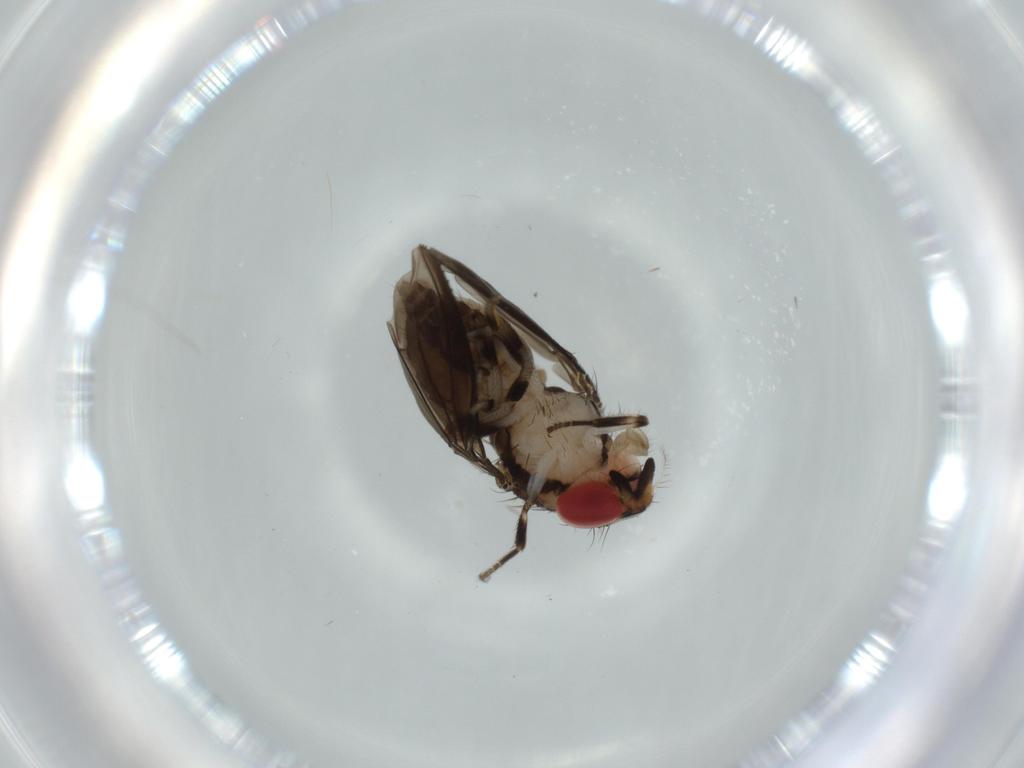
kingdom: Animalia
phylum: Arthropoda
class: Insecta
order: Diptera
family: Drosophilidae
